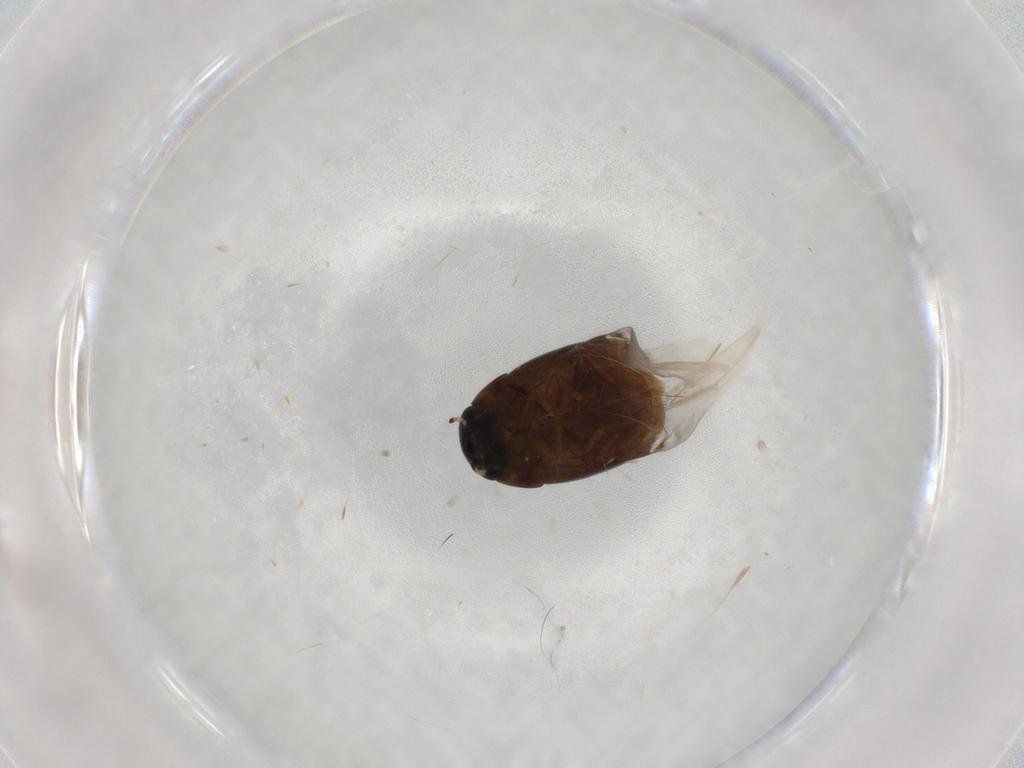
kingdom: Animalia
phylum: Arthropoda
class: Insecta
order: Coleoptera
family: Hydrophilidae
